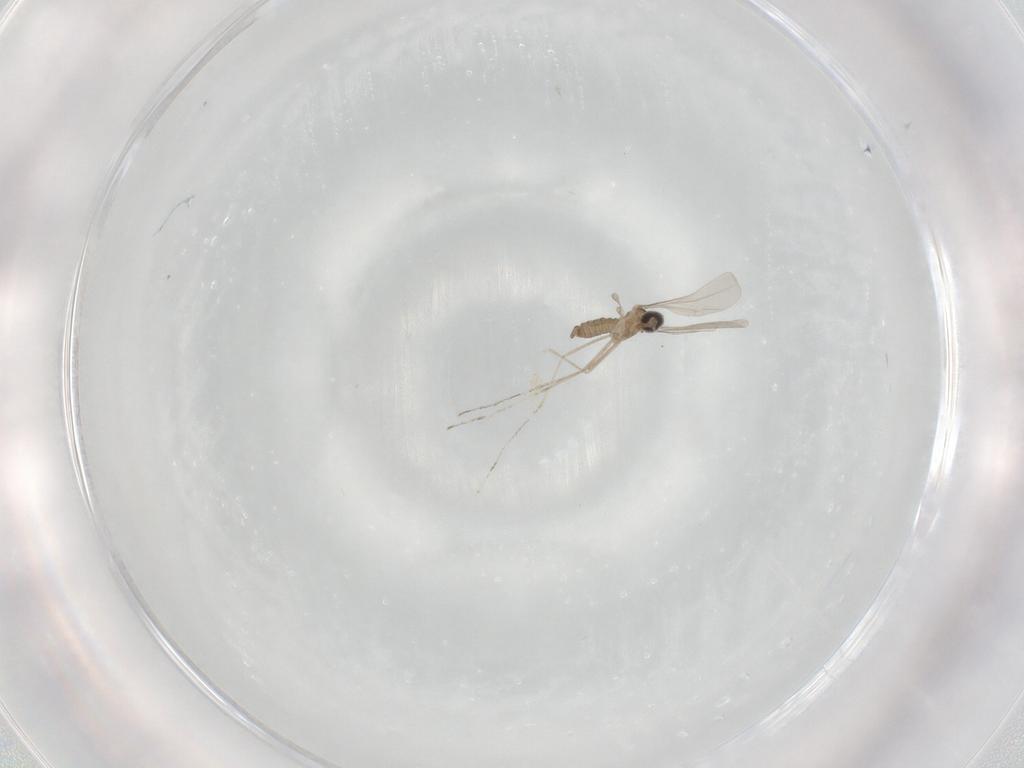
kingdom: Animalia
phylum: Arthropoda
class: Insecta
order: Diptera
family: Cecidomyiidae
